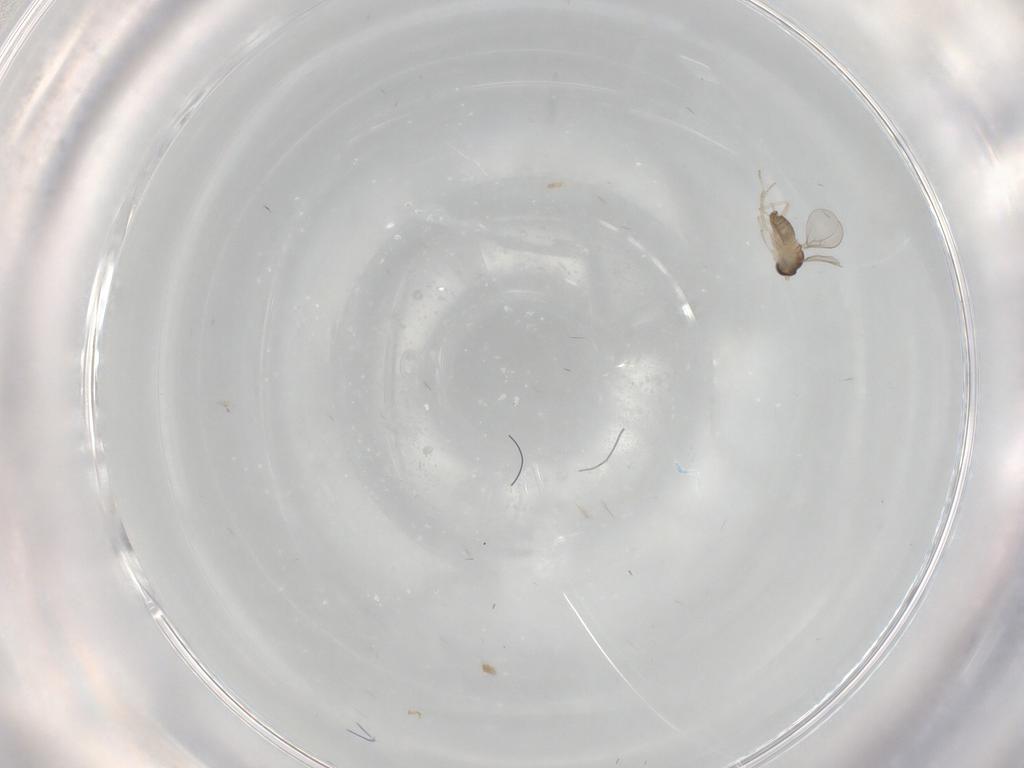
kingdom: Animalia
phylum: Arthropoda
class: Insecta
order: Diptera
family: Cecidomyiidae
